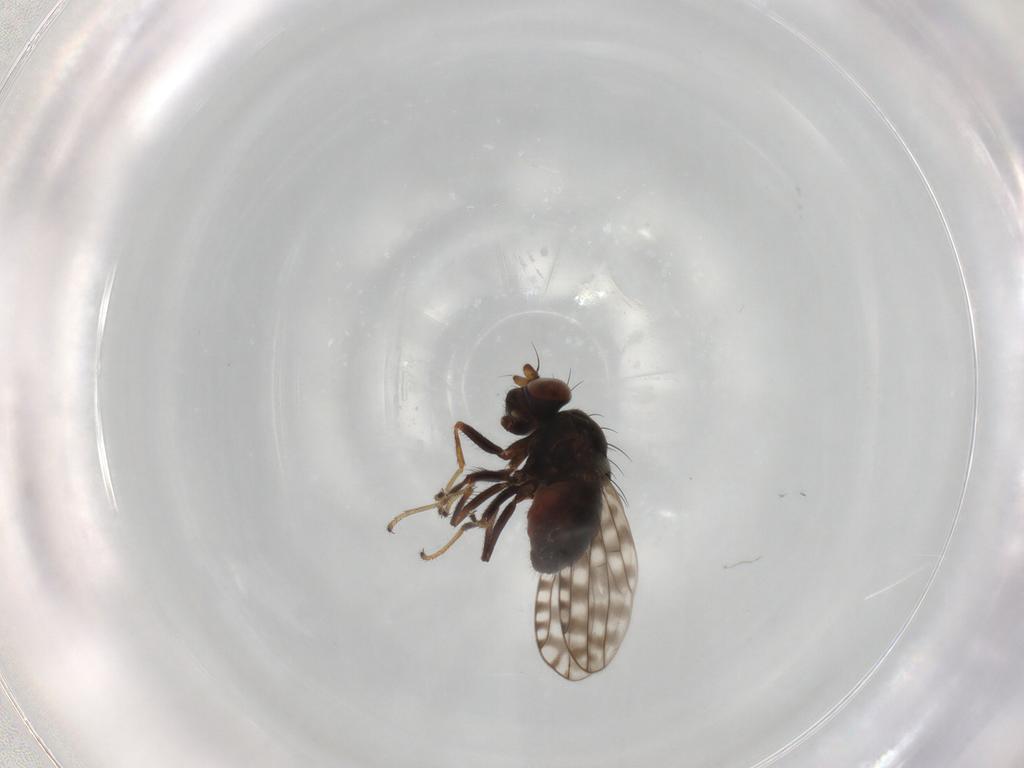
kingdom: Animalia
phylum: Arthropoda
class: Insecta
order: Diptera
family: Ephydridae
